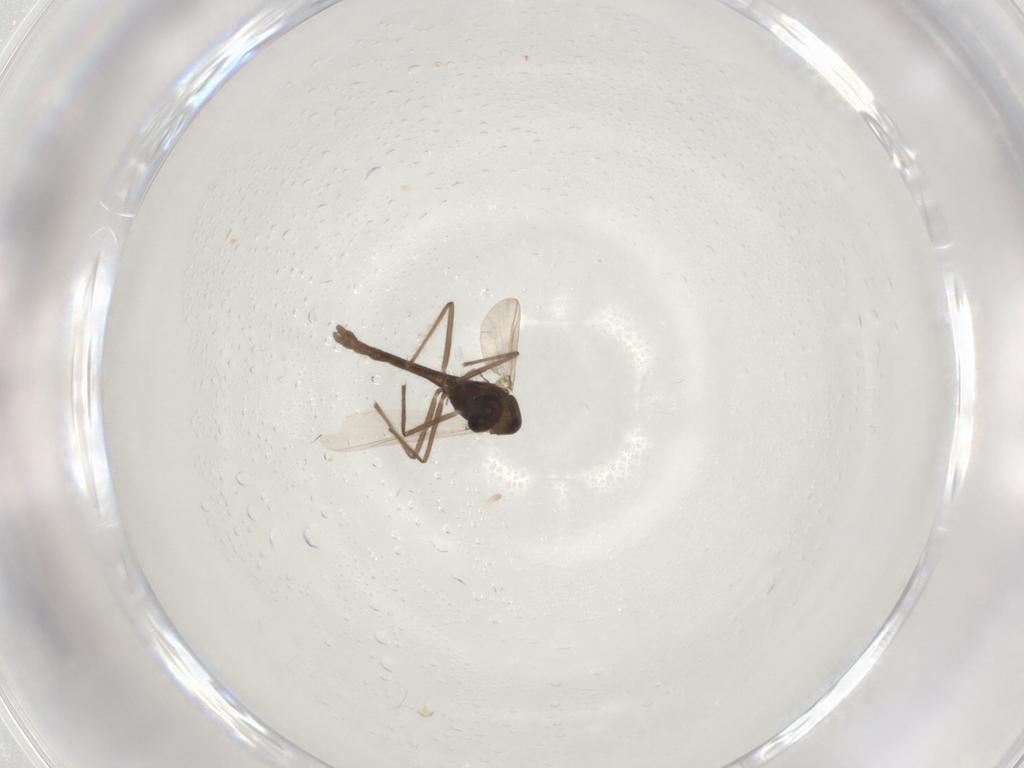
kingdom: Animalia
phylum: Arthropoda
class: Insecta
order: Diptera
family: Chironomidae
